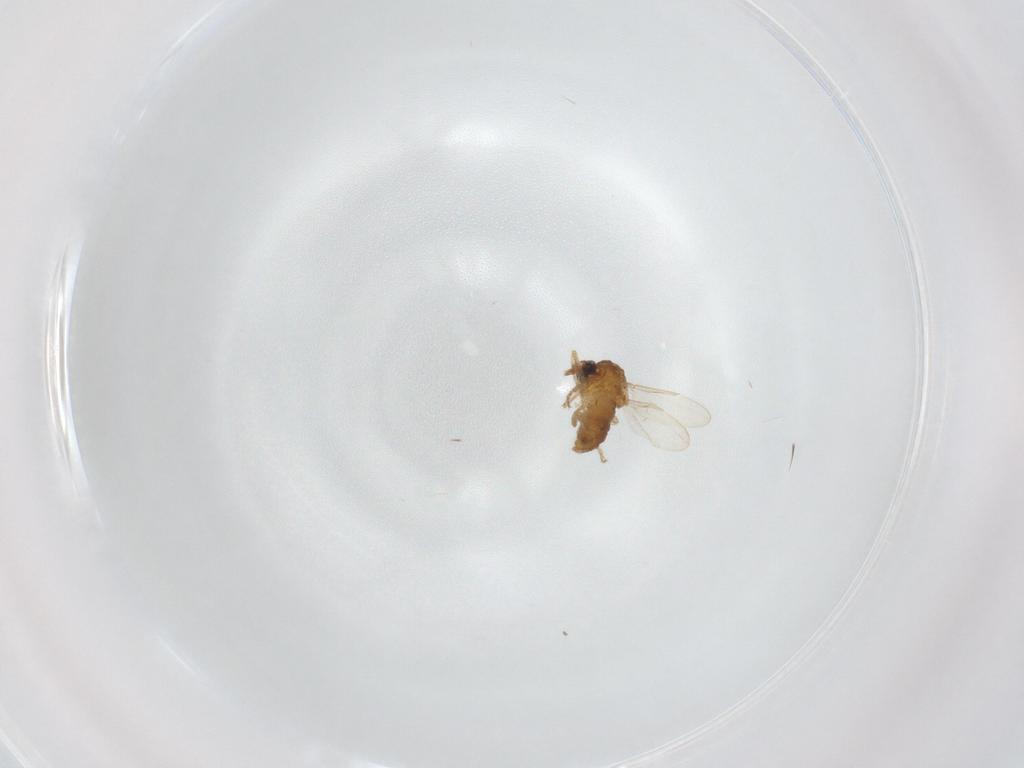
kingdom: Animalia
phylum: Arthropoda
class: Insecta
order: Diptera
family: Ceratopogonidae
